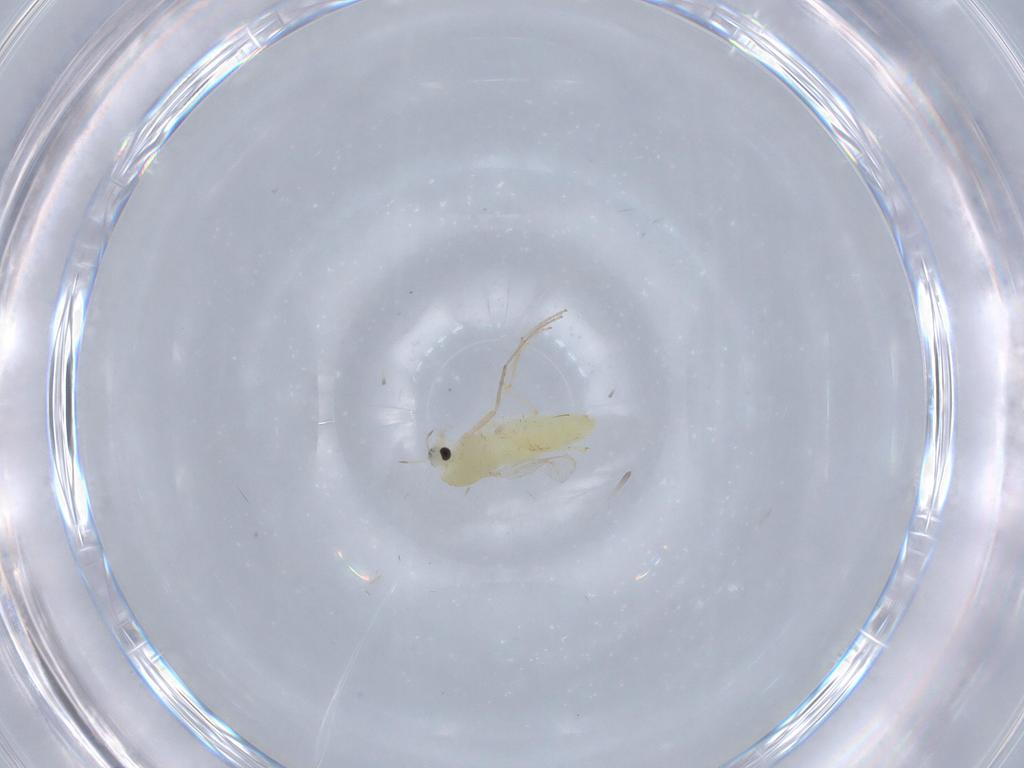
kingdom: Animalia
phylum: Arthropoda
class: Insecta
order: Diptera
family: Chironomidae
